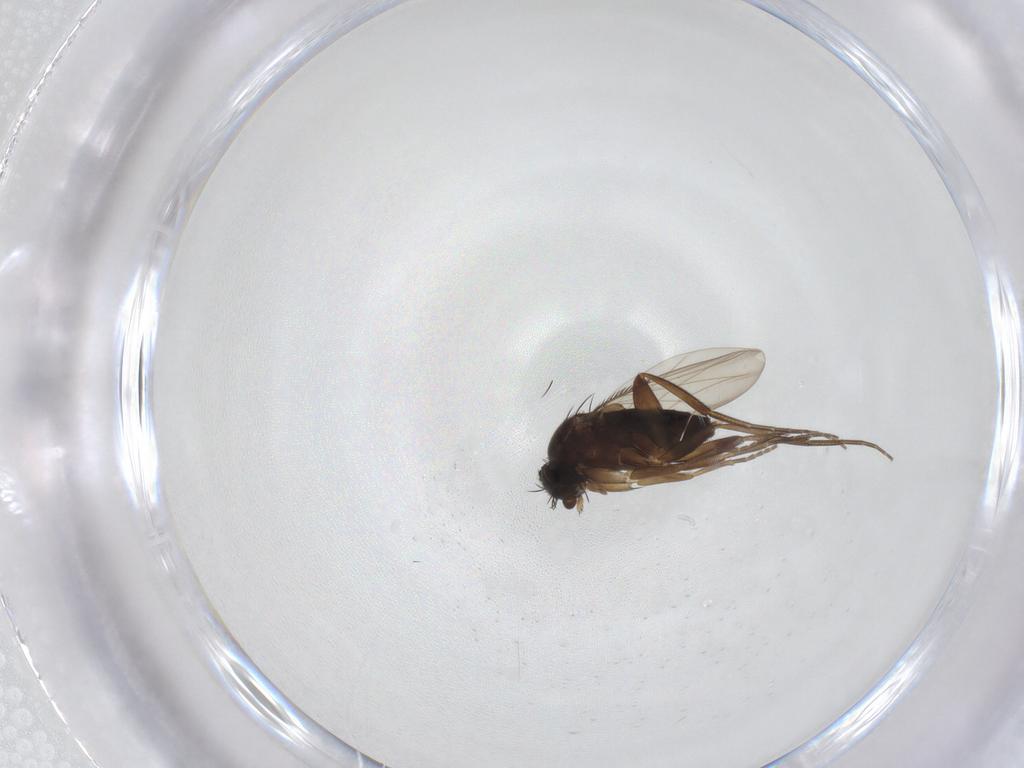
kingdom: Animalia
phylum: Arthropoda
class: Insecta
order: Diptera
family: Phoridae
